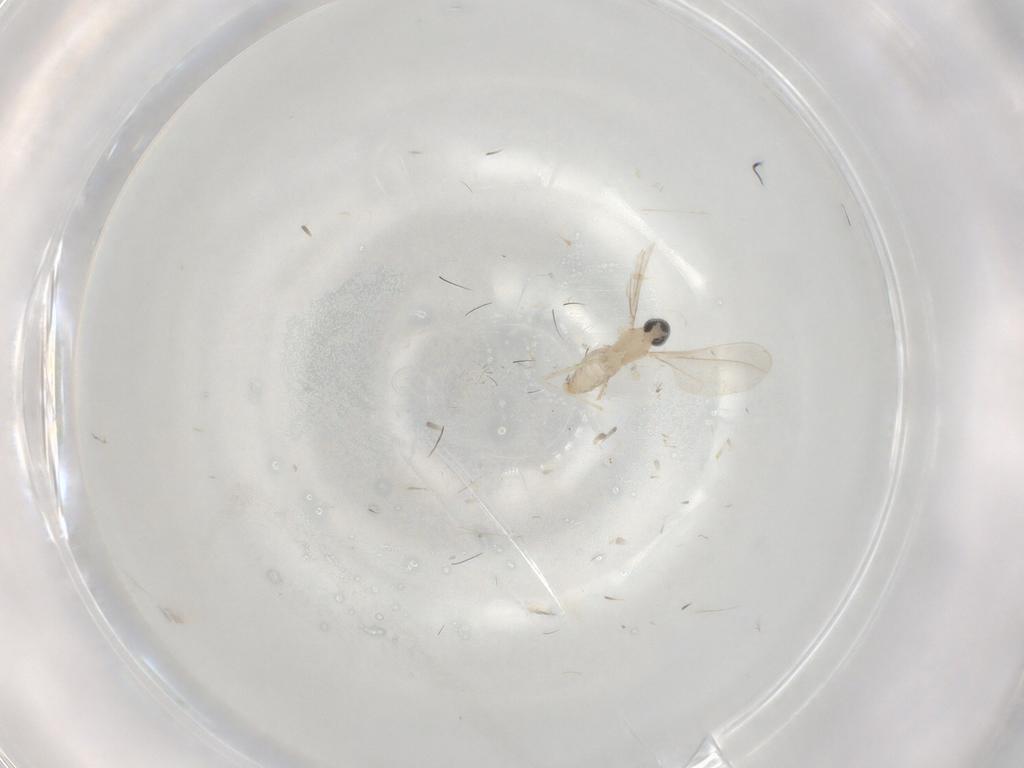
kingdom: Animalia
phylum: Arthropoda
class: Insecta
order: Diptera
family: Cecidomyiidae
